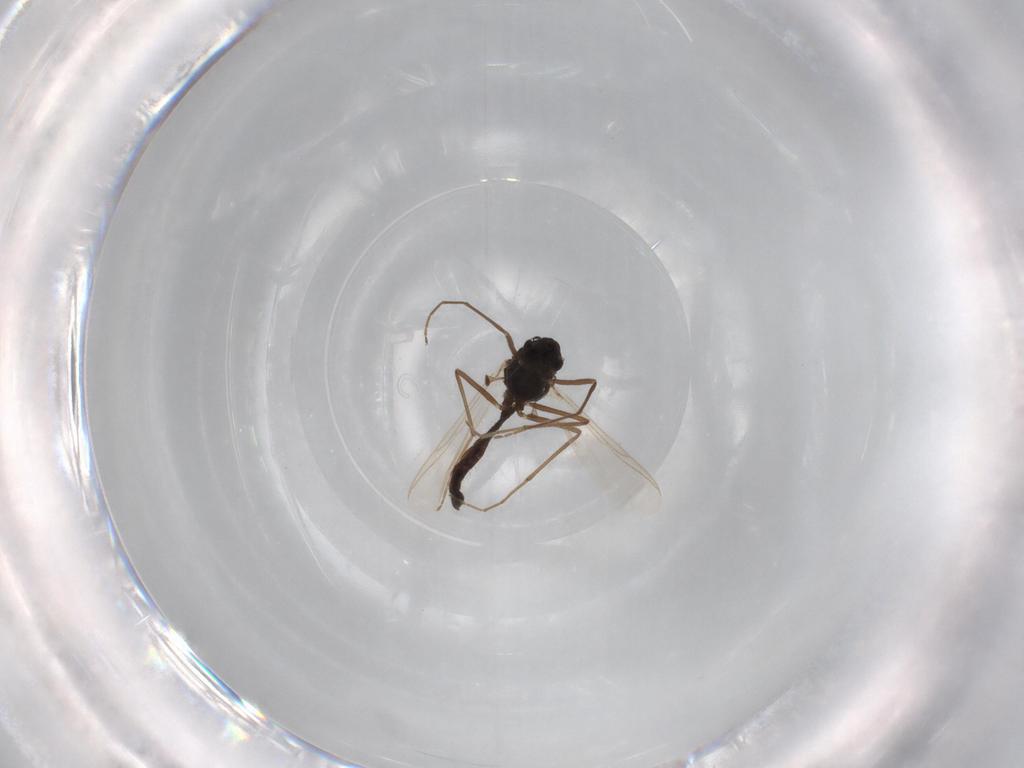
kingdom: Animalia
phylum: Arthropoda
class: Insecta
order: Diptera
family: Chironomidae
